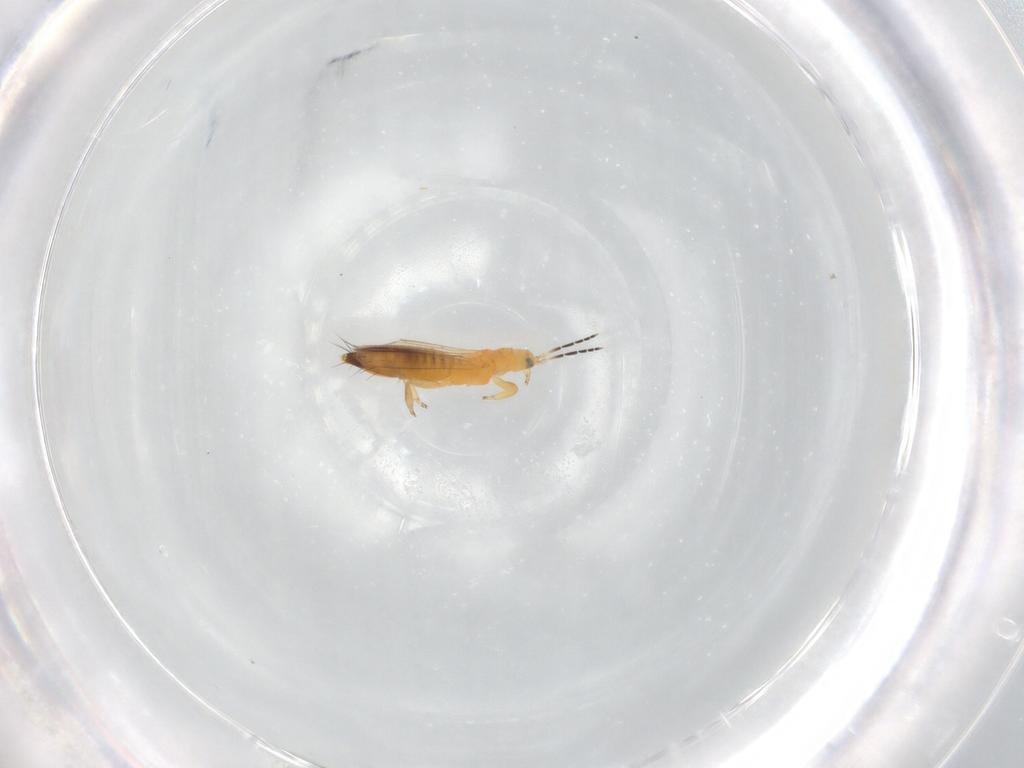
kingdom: Animalia
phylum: Arthropoda
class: Insecta
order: Thysanoptera
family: Aeolothripidae
